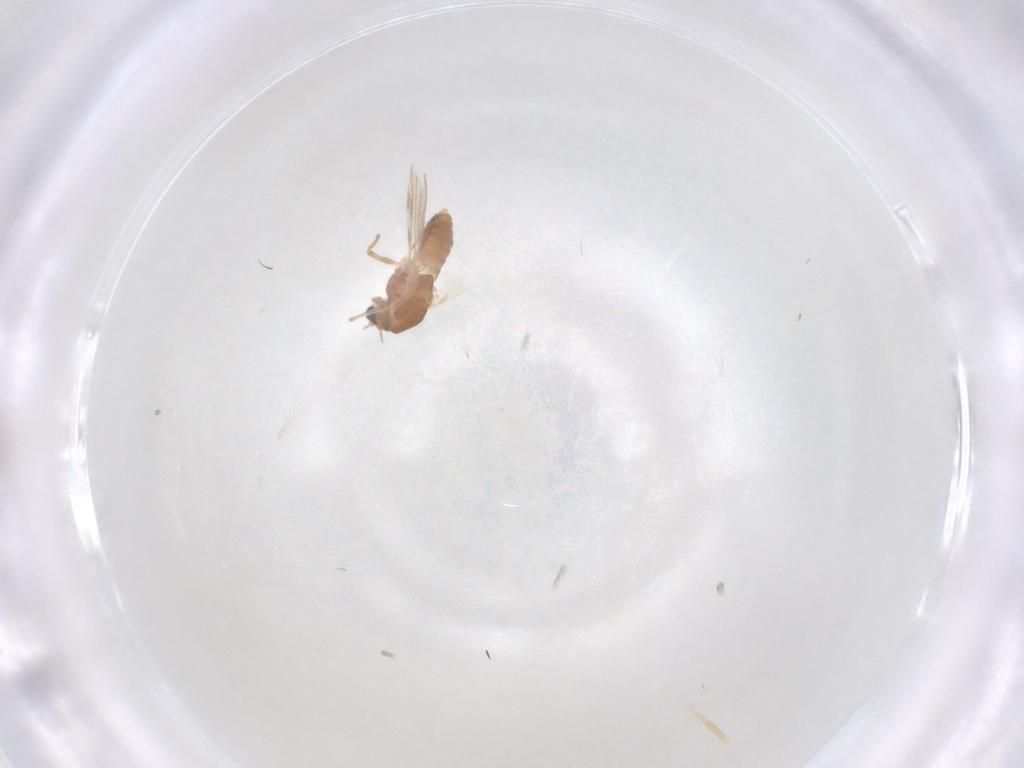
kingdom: Animalia
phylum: Arthropoda
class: Insecta
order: Diptera
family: Chironomidae
